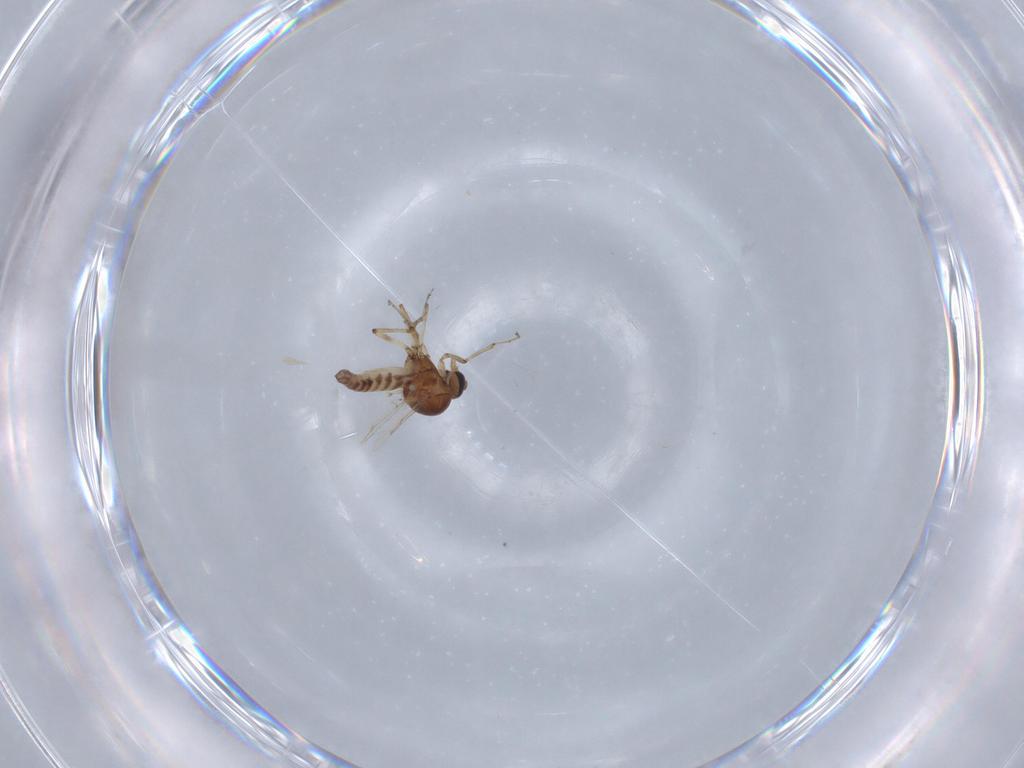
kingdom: Animalia
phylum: Arthropoda
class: Insecta
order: Diptera
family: Ceratopogonidae
